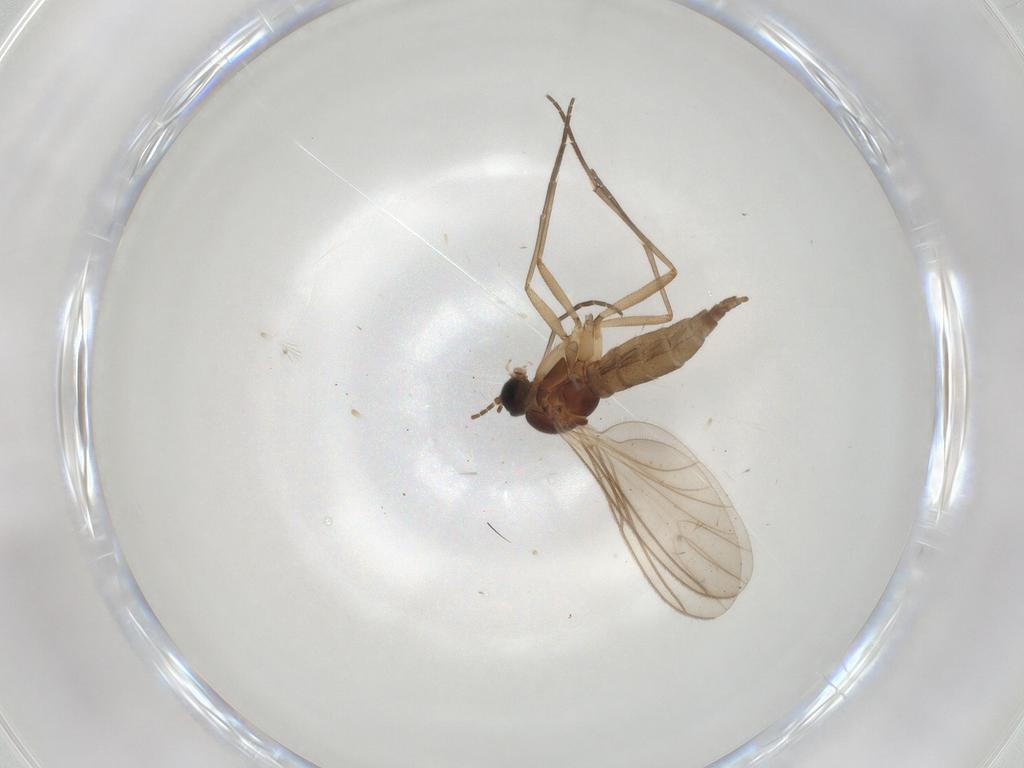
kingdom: Animalia
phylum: Arthropoda
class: Insecta
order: Diptera
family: Sciaridae
